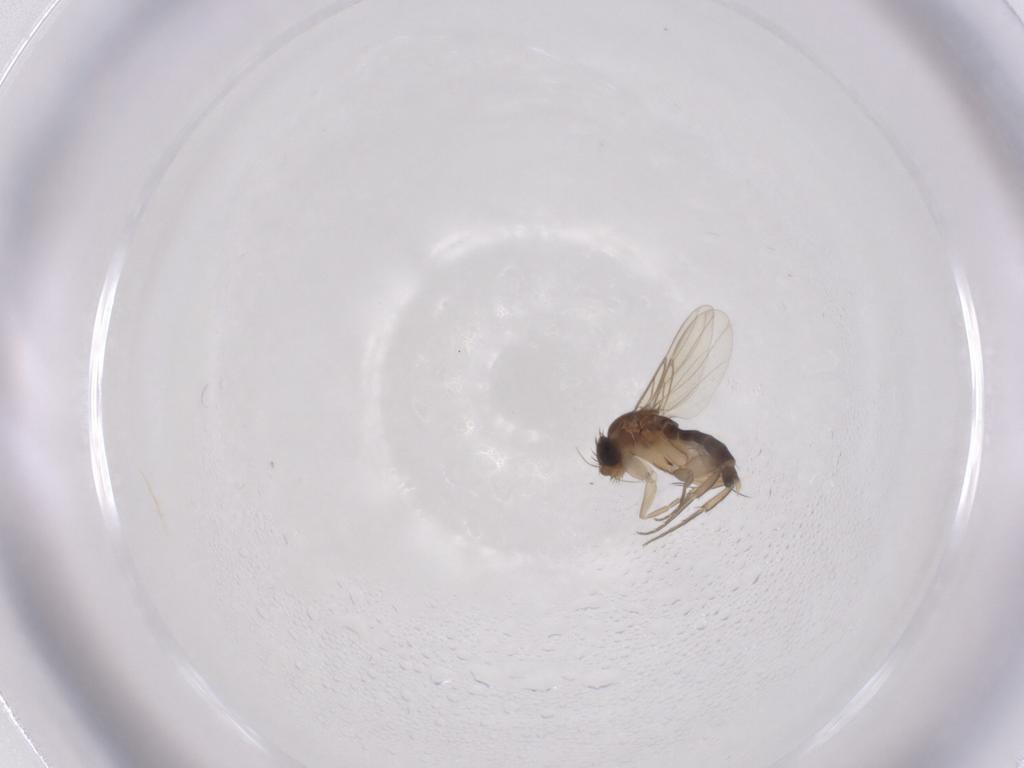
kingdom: Animalia
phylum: Arthropoda
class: Insecta
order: Diptera
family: Phoridae
